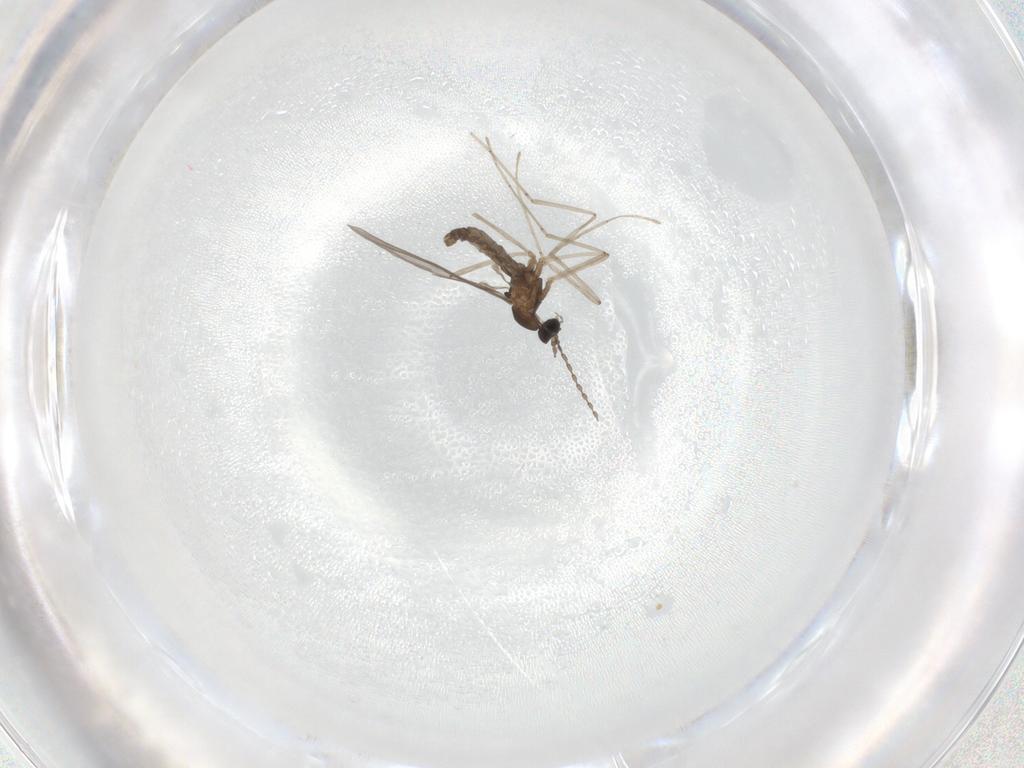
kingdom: Animalia
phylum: Arthropoda
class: Insecta
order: Diptera
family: Cecidomyiidae
